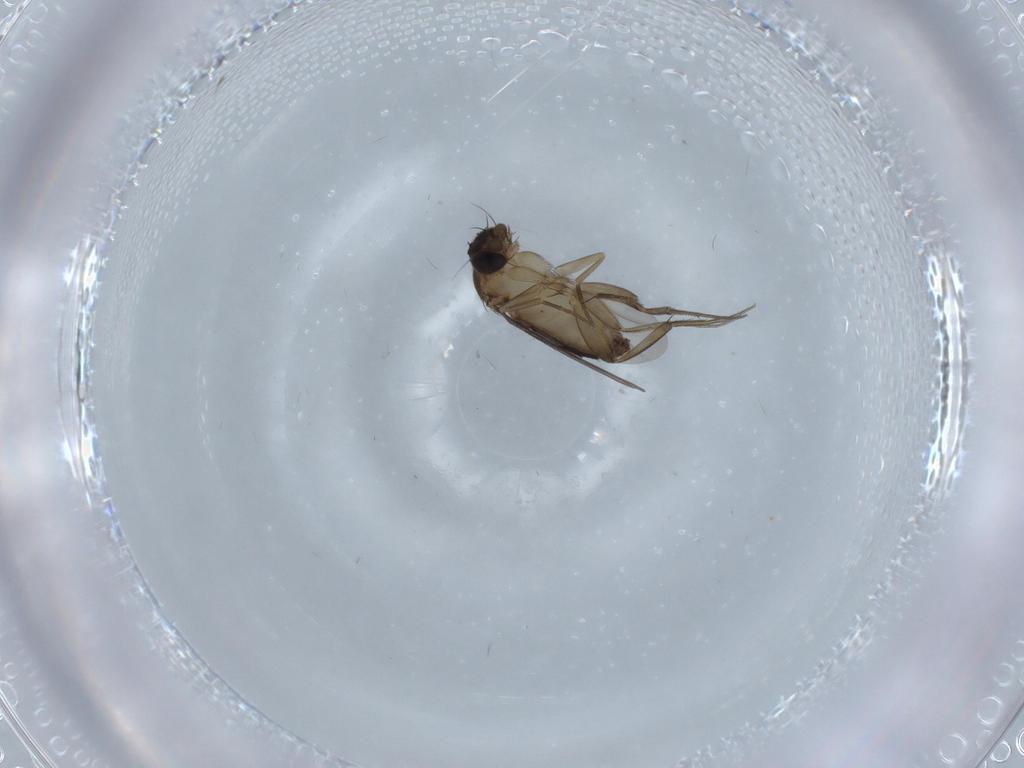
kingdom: Animalia
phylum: Arthropoda
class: Insecta
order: Diptera
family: Phoridae
